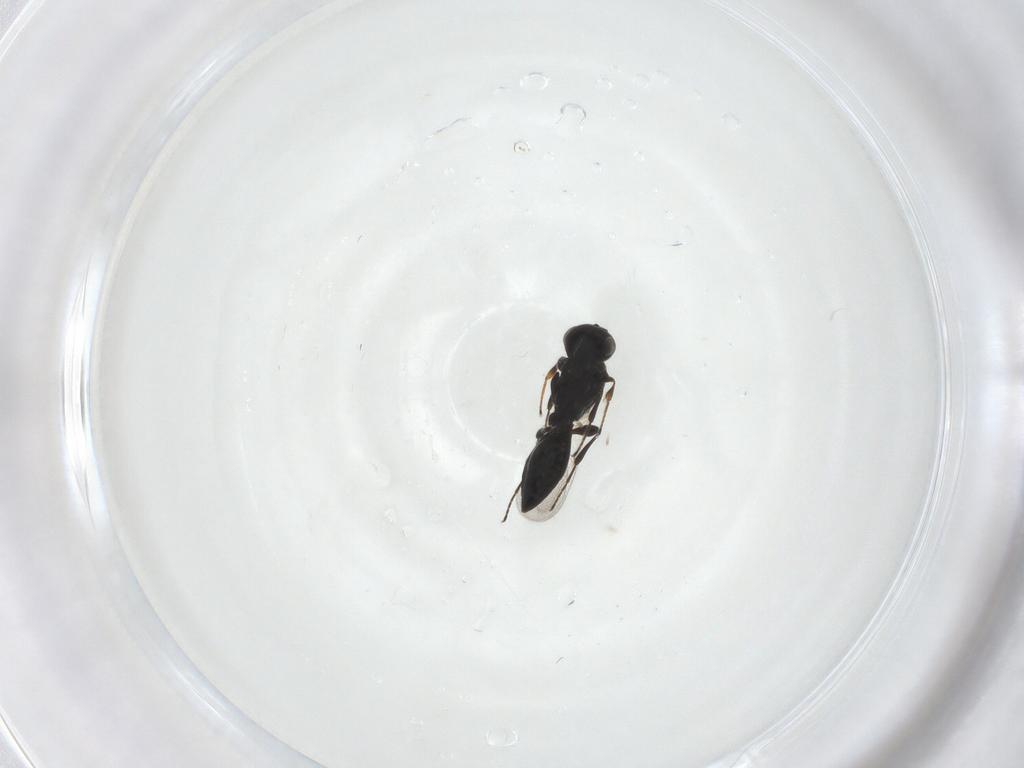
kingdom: Animalia
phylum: Arthropoda
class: Insecta
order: Hymenoptera
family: Platygastridae
